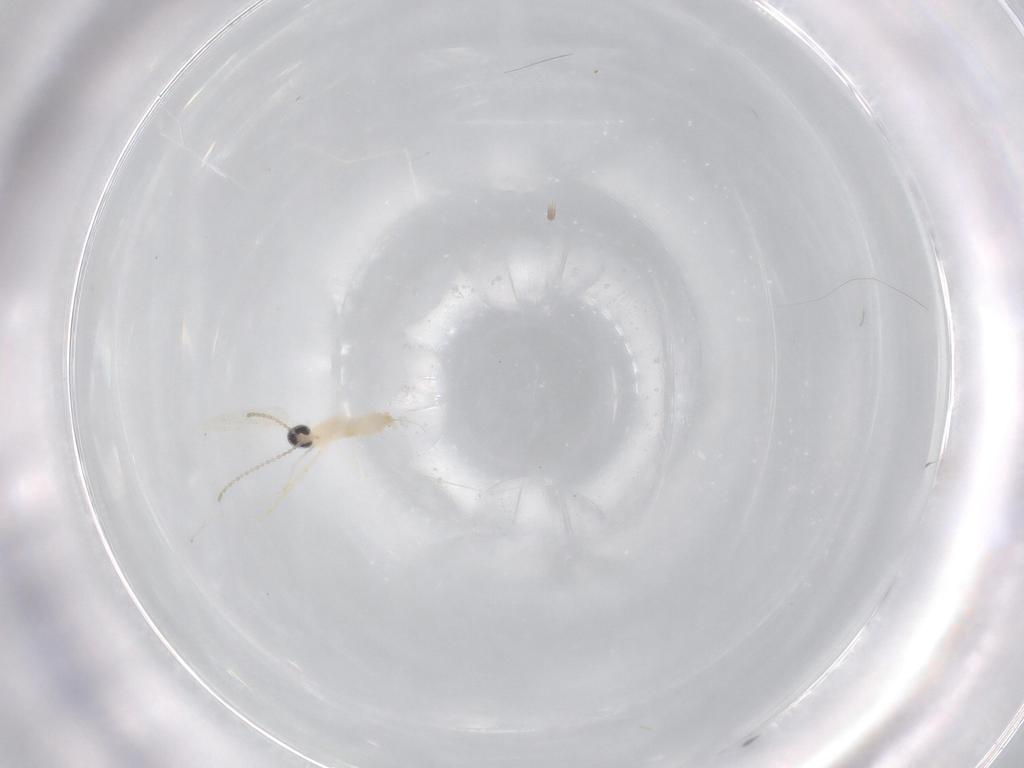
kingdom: Animalia
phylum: Arthropoda
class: Insecta
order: Diptera
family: Cecidomyiidae
